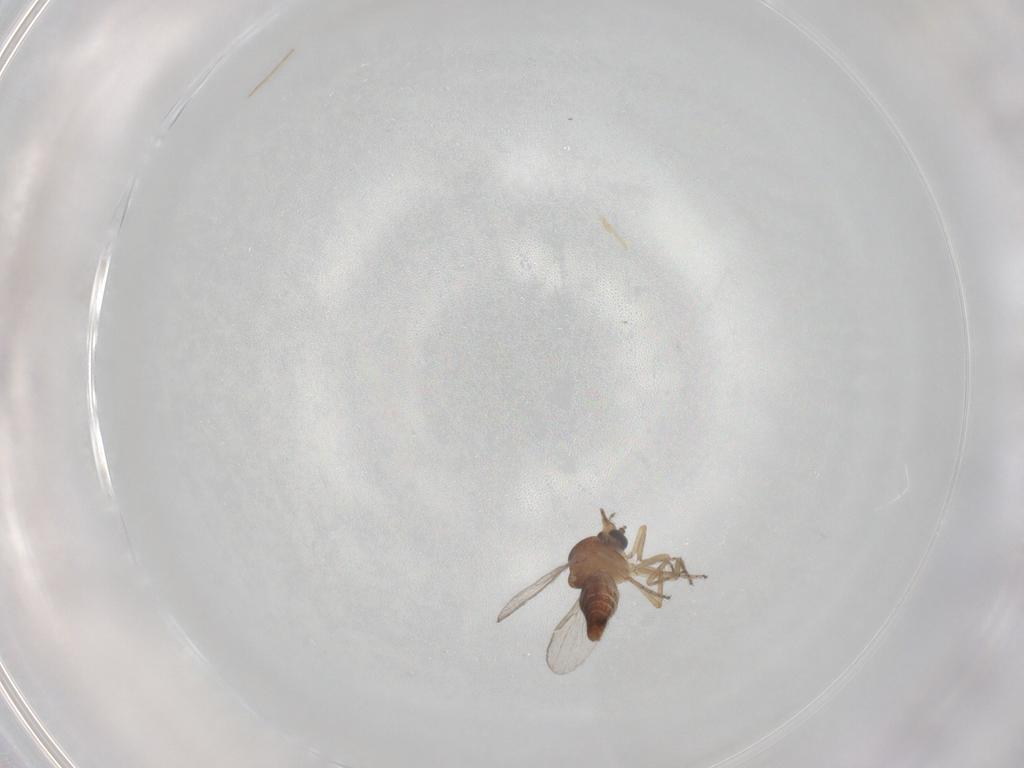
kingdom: Animalia
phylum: Arthropoda
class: Insecta
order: Diptera
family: Ceratopogonidae
